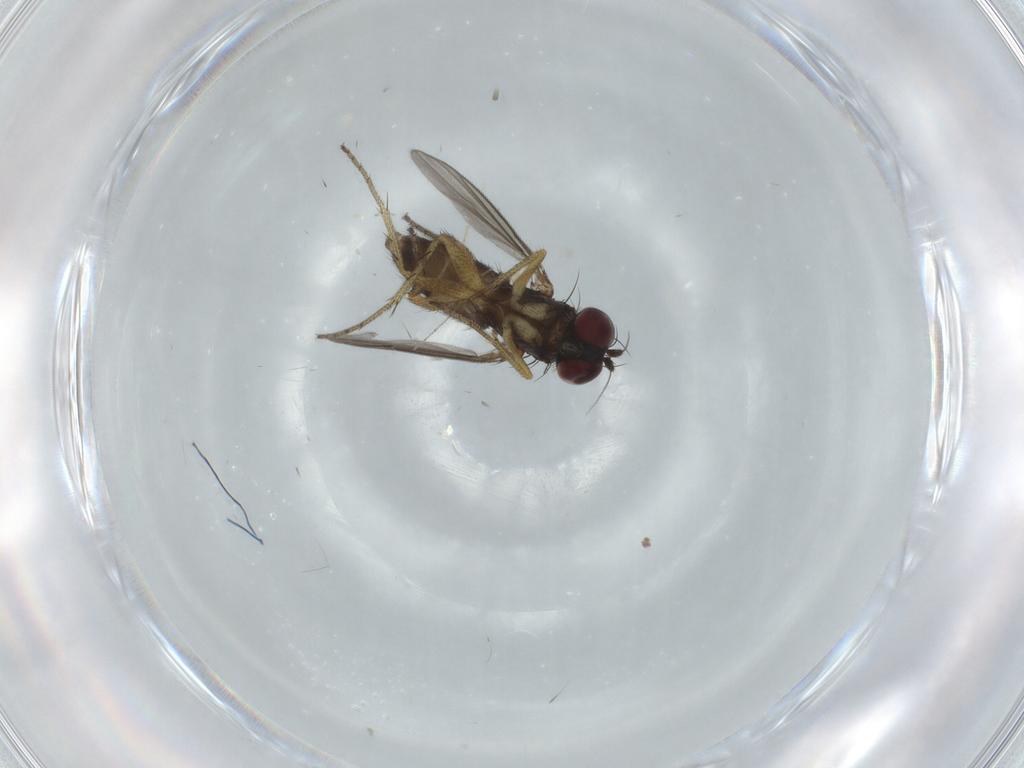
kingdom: Animalia
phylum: Arthropoda
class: Insecta
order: Diptera
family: Dolichopodidae
